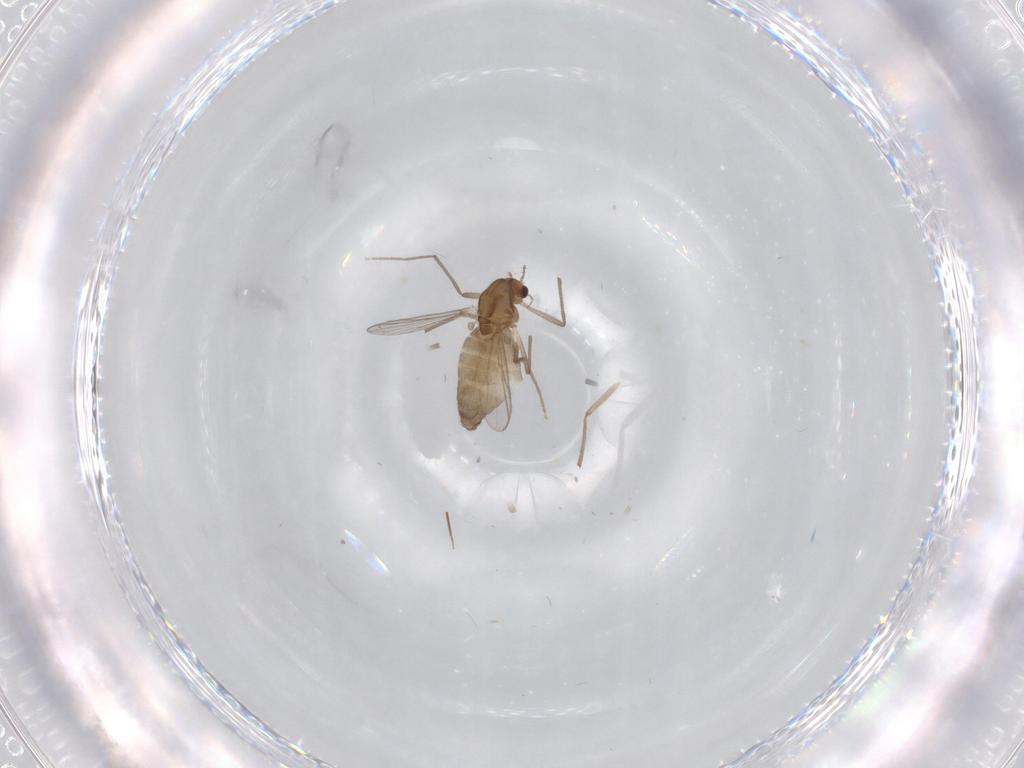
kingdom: Animalia
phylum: Arthropoda
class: Insecta
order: Diptera
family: Chironomidae
